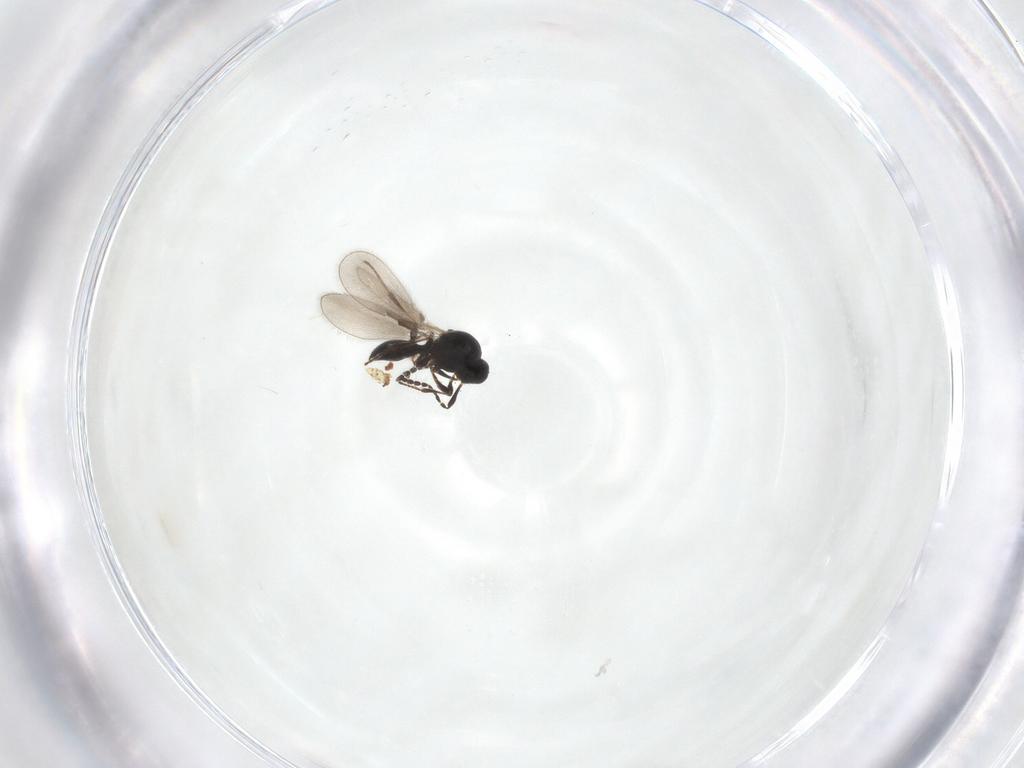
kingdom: Animalia
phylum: Arthropoda
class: Insecta
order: Hymenoptera
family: Platygastridae
